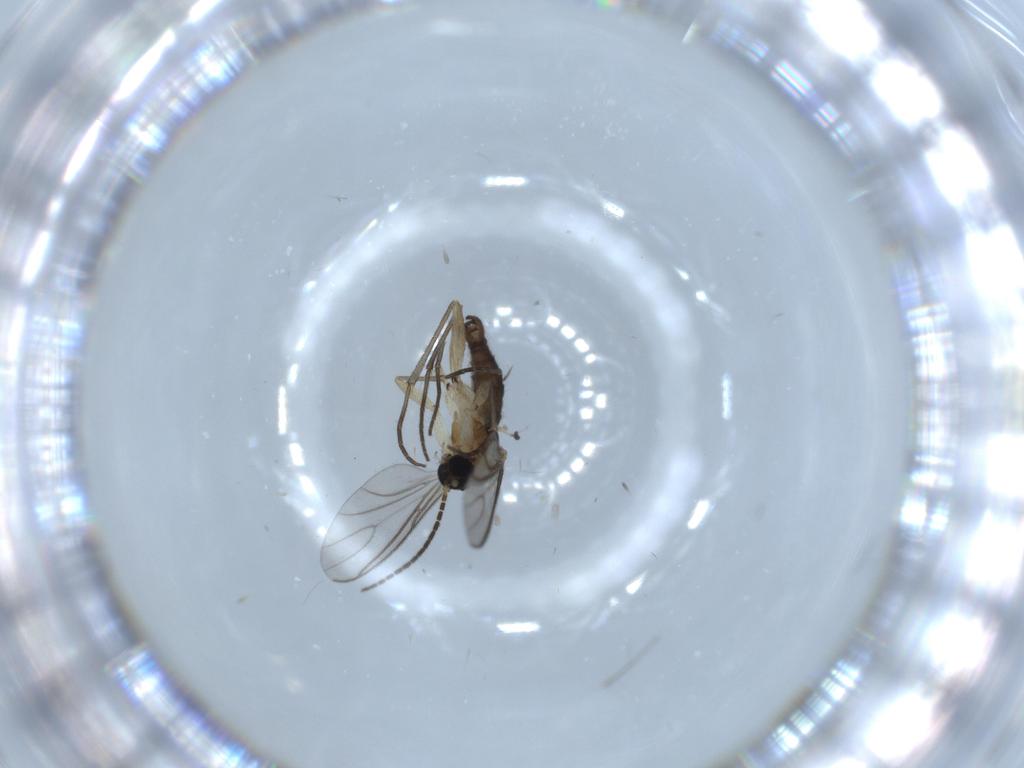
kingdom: Animalia
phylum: Arthropoda
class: Insecta
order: Diptera
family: Sciaridae
